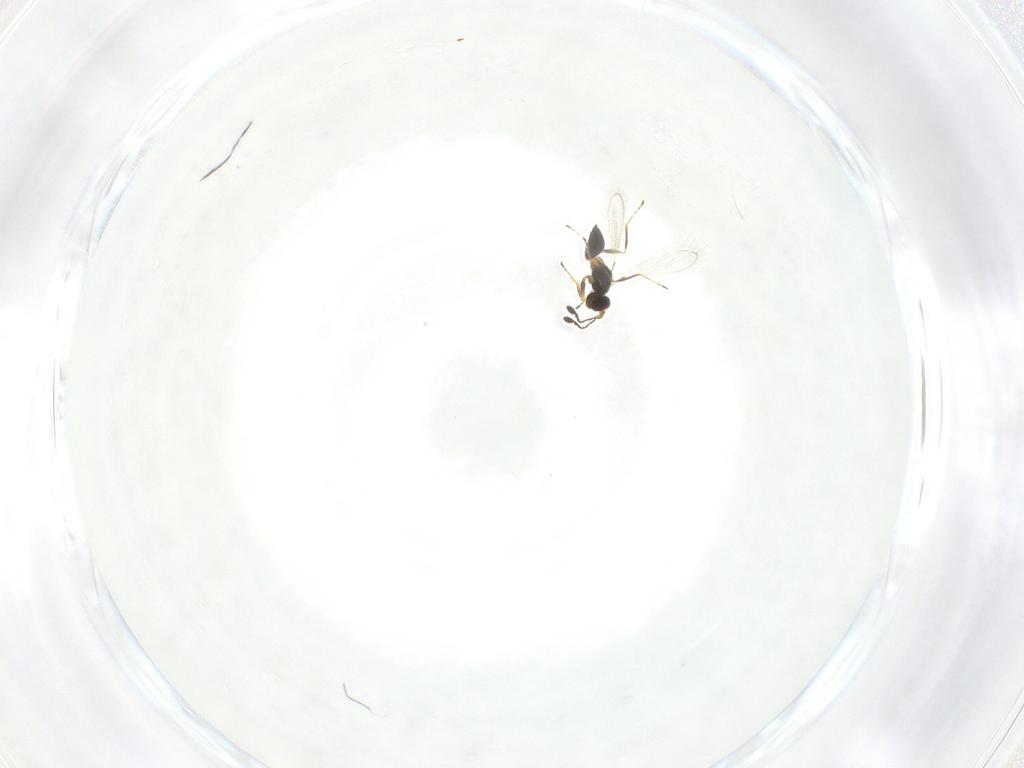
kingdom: Animalia
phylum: Arthropoda
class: Insecta
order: Hymenoptera
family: Mymaridae
